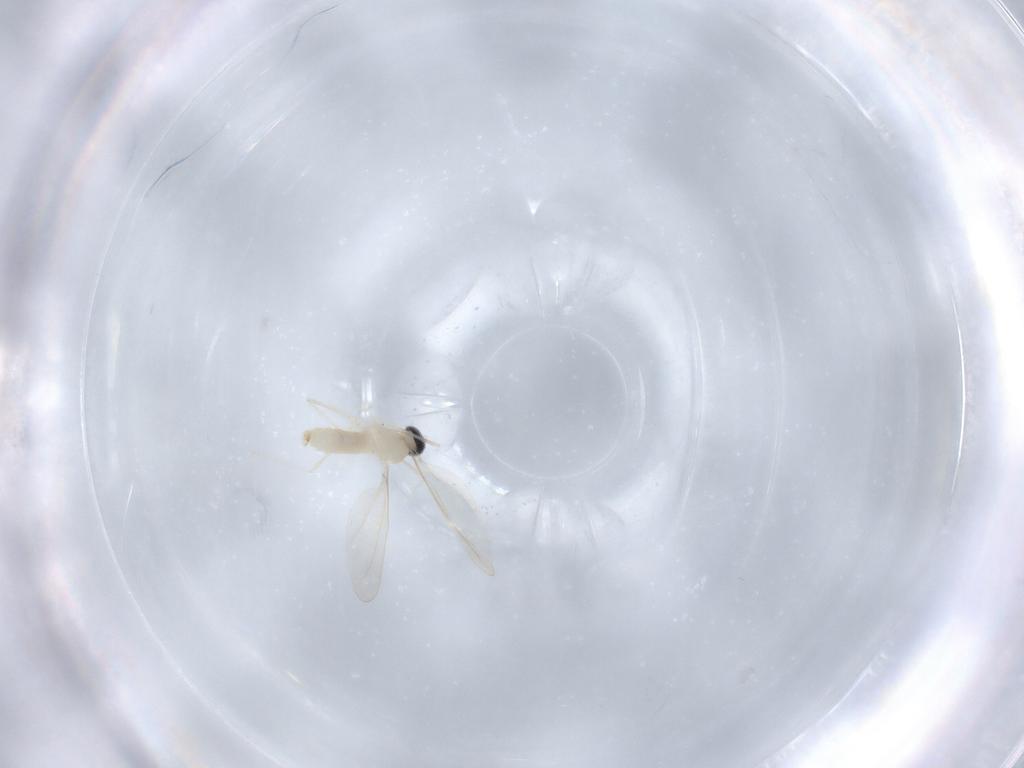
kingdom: Animalia
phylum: Arthropoda
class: Insecta
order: Diptera
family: Neriidae
